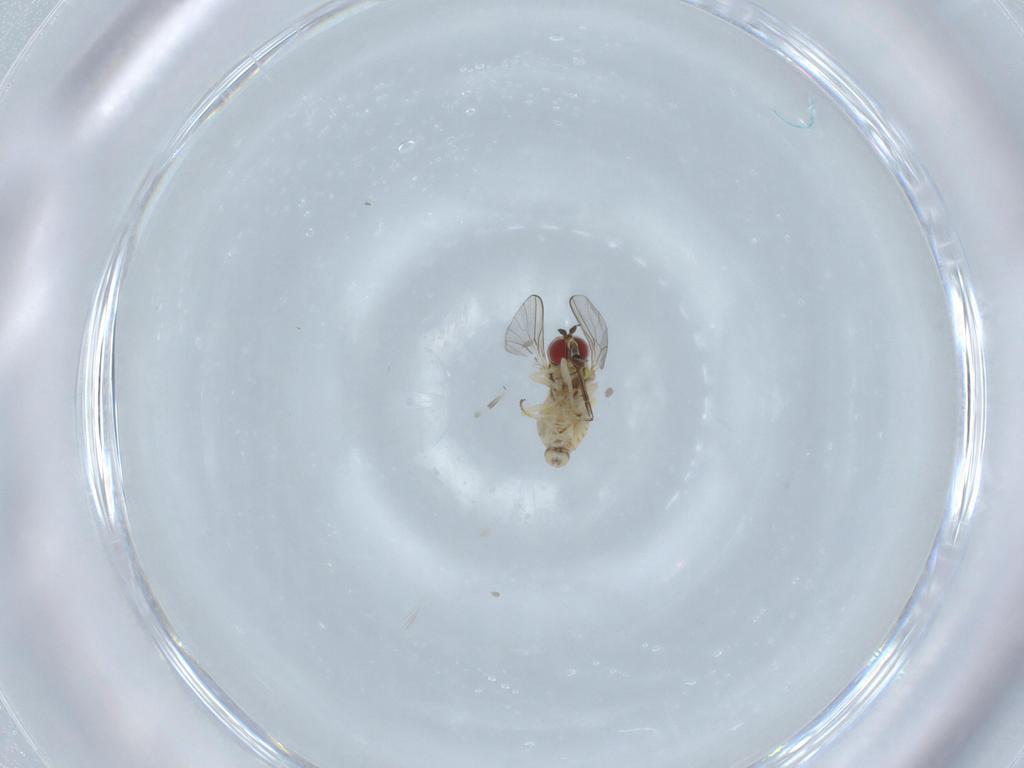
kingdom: Animalia
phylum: Arthropoda
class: Insecta
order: Diptera
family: Bombyliidae
